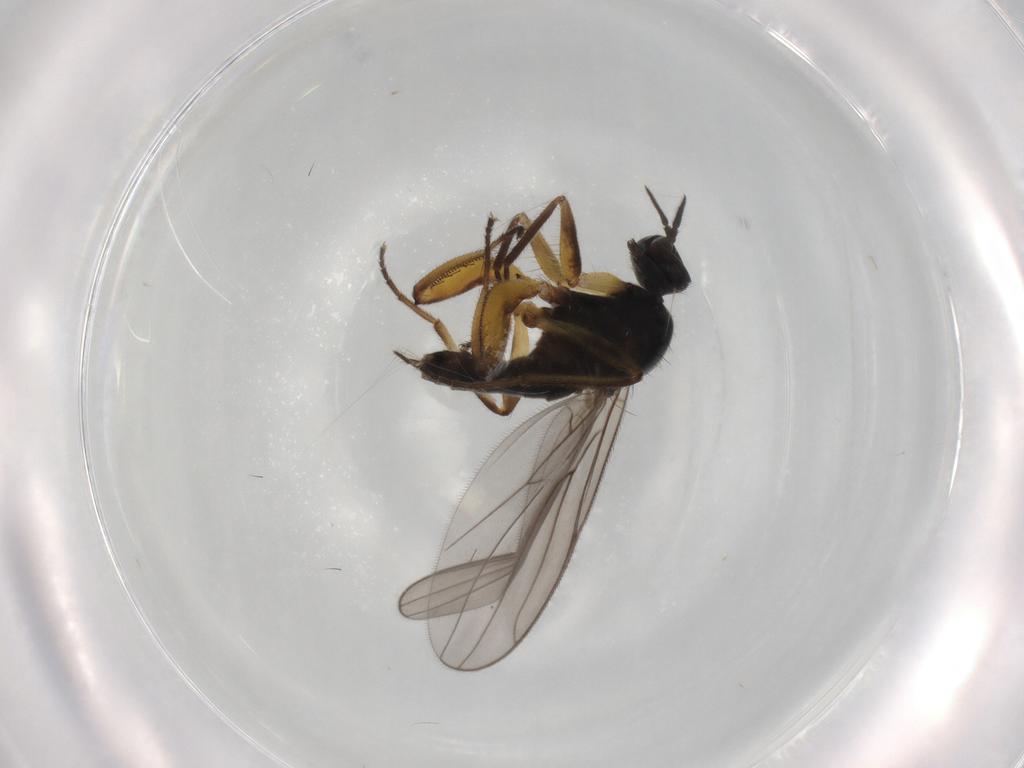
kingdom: Animalia
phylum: Arthropoda
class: Insecta
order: Diptera
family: Hybotidae
